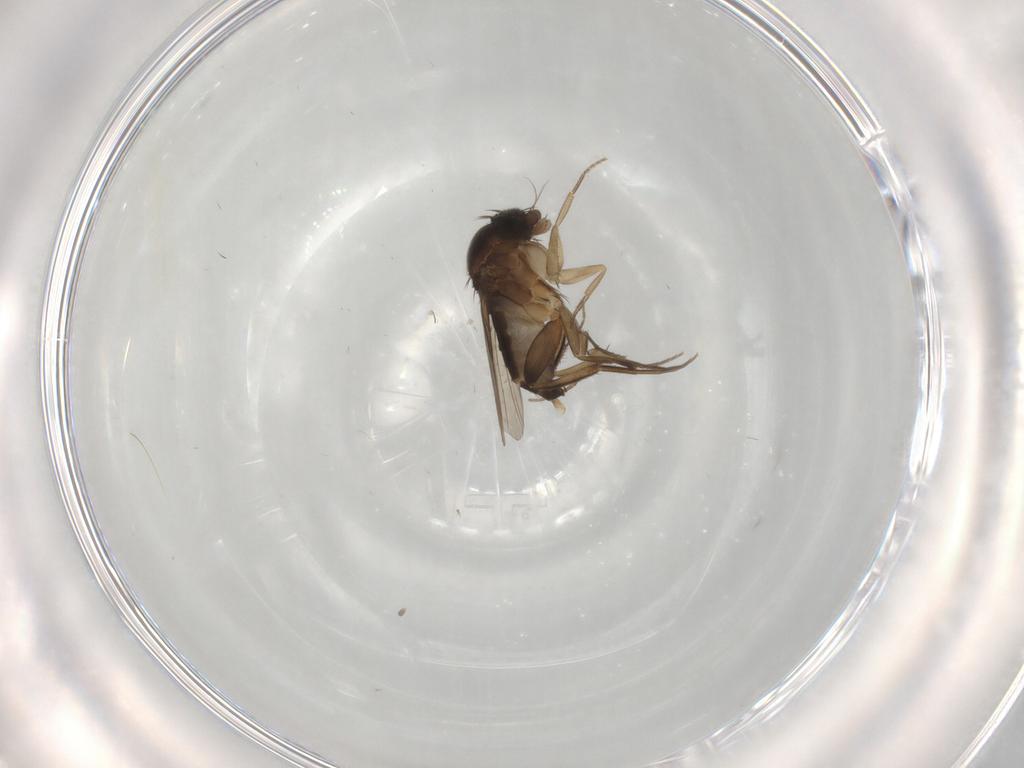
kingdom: Animalia
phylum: Arthropoda
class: Insecta
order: Diptera
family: Phoridae
